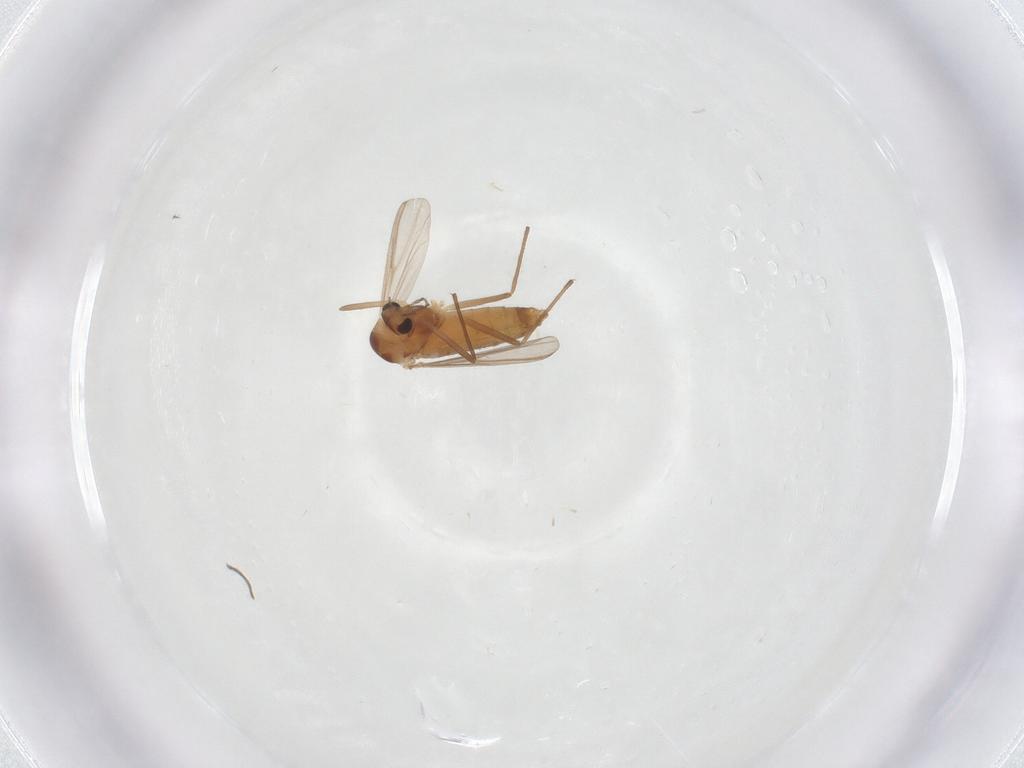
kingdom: Animalia
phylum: Arthropoda
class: Insecta
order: Diptera
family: Chironomidae
